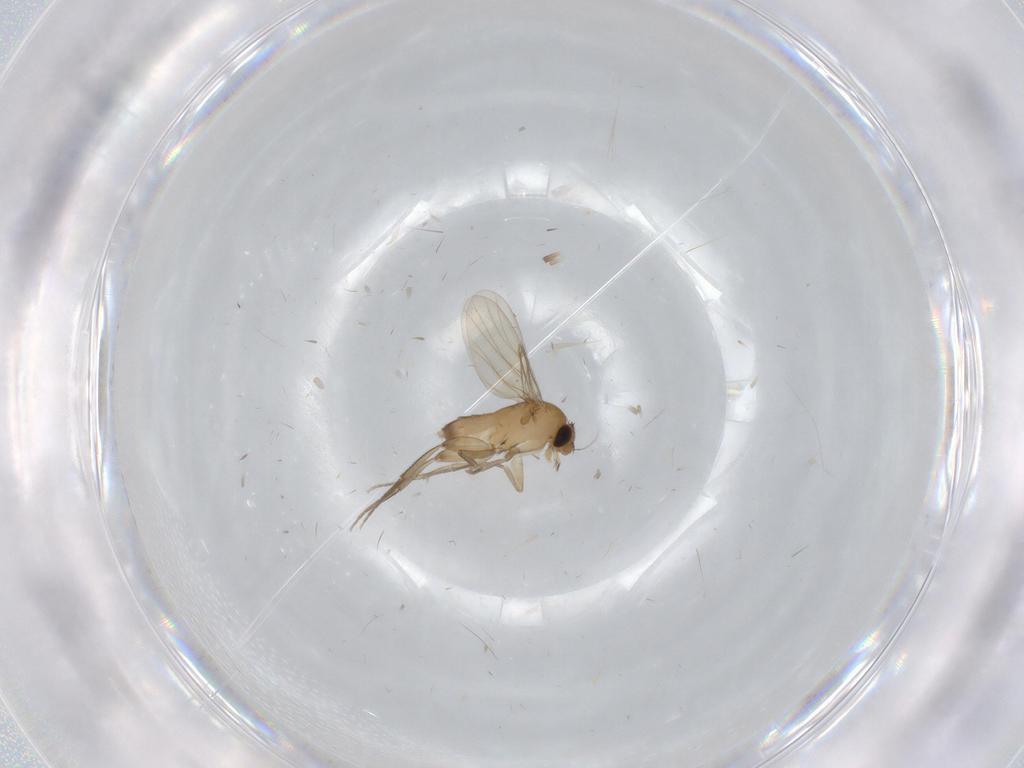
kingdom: Animalia
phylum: Arthropoda
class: Insecta
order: Diptera
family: Phoridae
